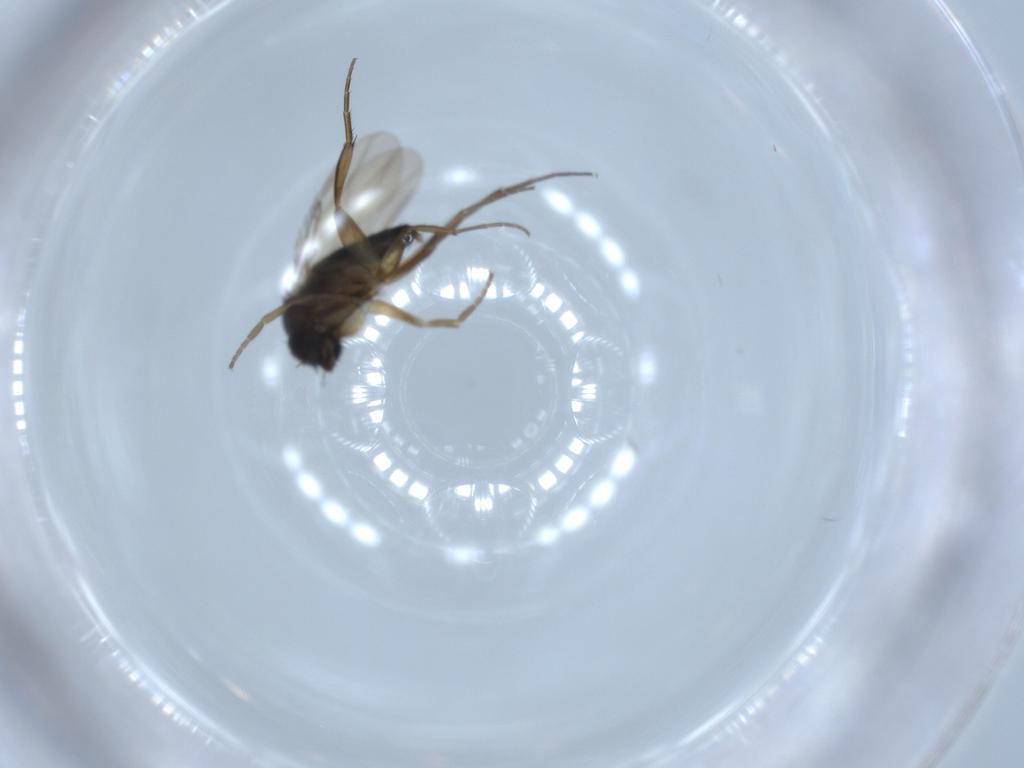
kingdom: Animalia
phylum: Arthropoda
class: Insecta
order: Diptera
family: Phoridae
